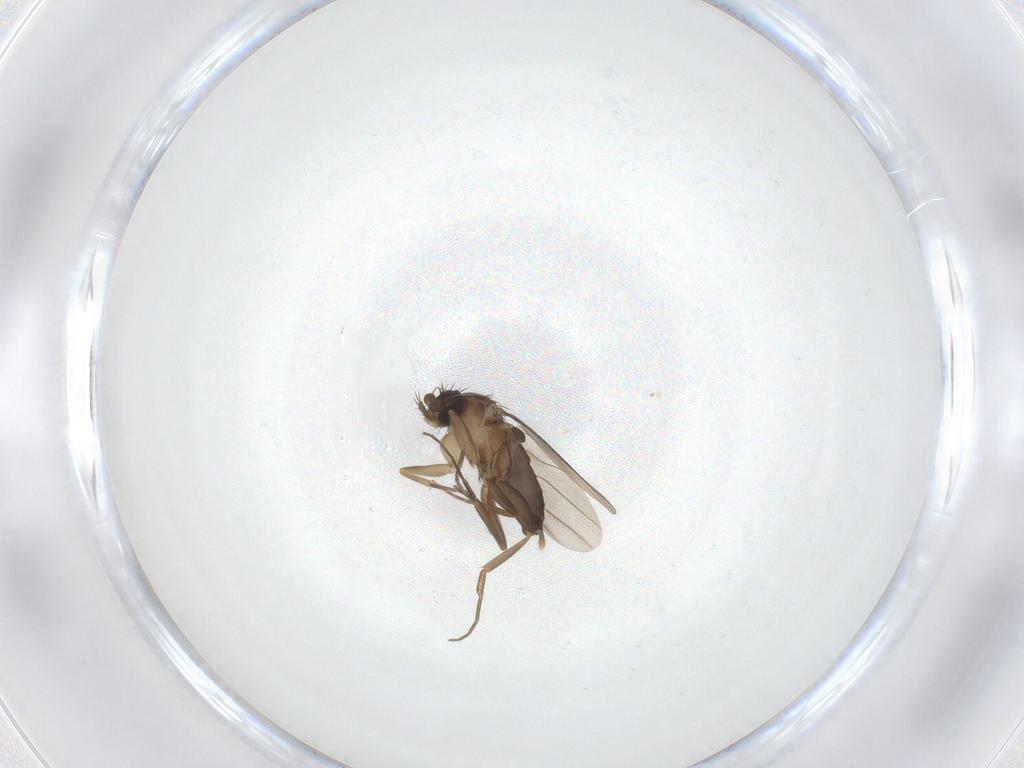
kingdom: Animalia
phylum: Arthropoda
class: Insecta
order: Diptera
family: Phoridae
